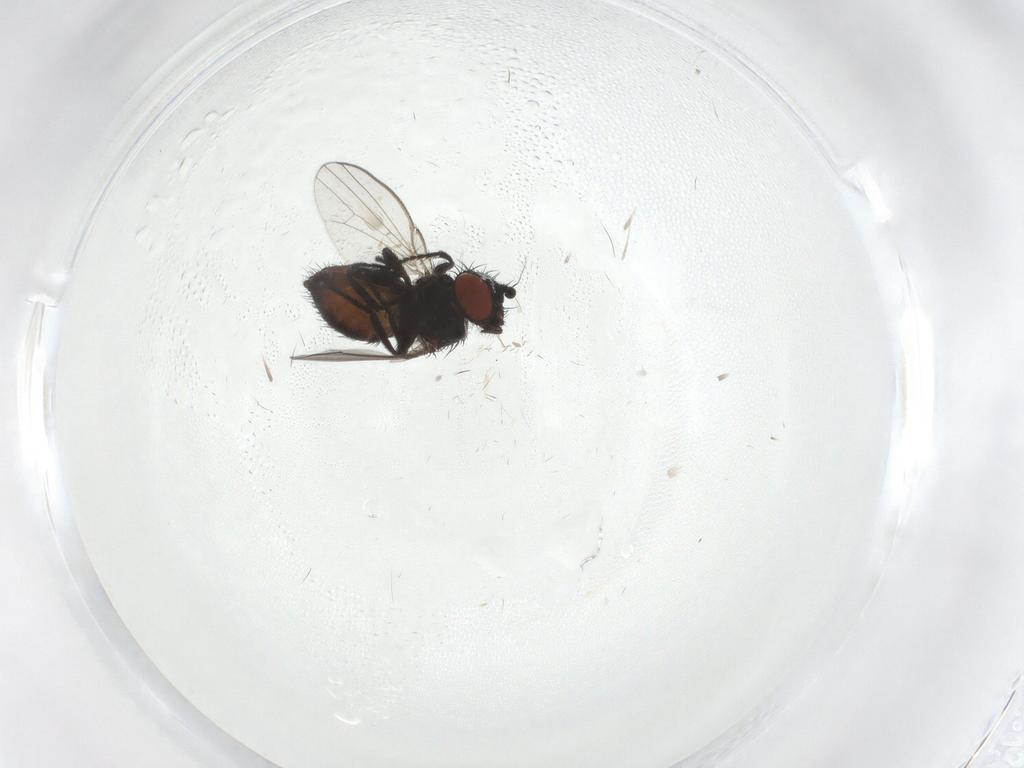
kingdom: Animalia
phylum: Arthropoda
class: Insecta
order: Diptera
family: Milichiidae
